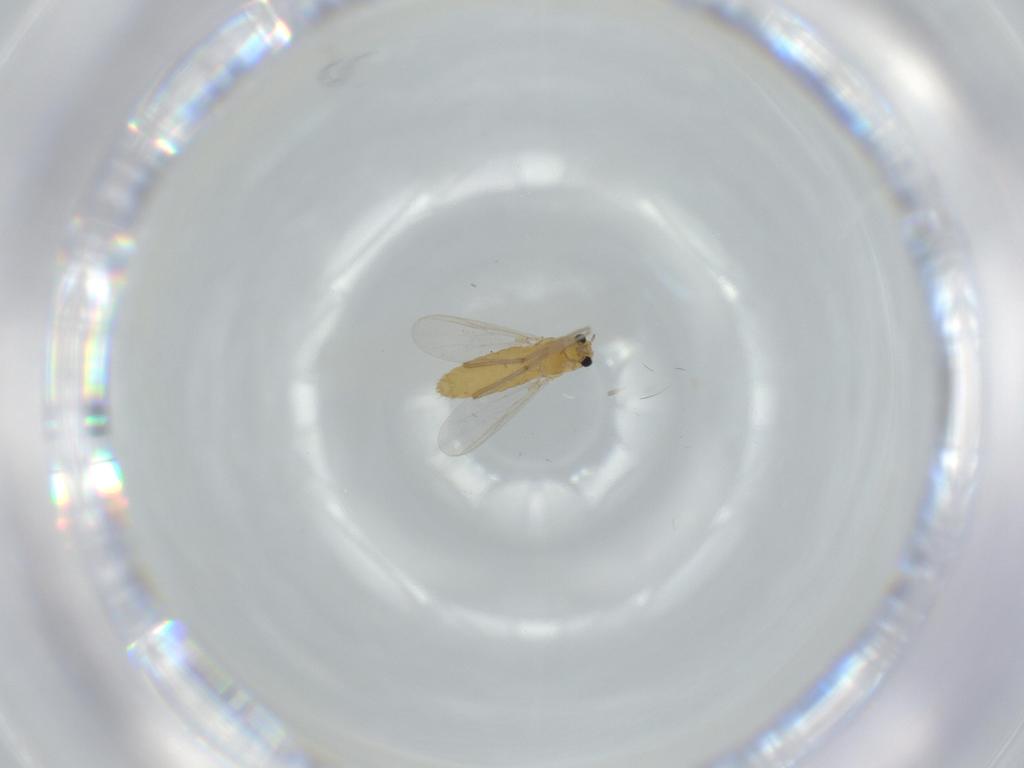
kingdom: Animalia
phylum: Arthropoda
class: Insecta
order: Diptera
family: Chironomidae
